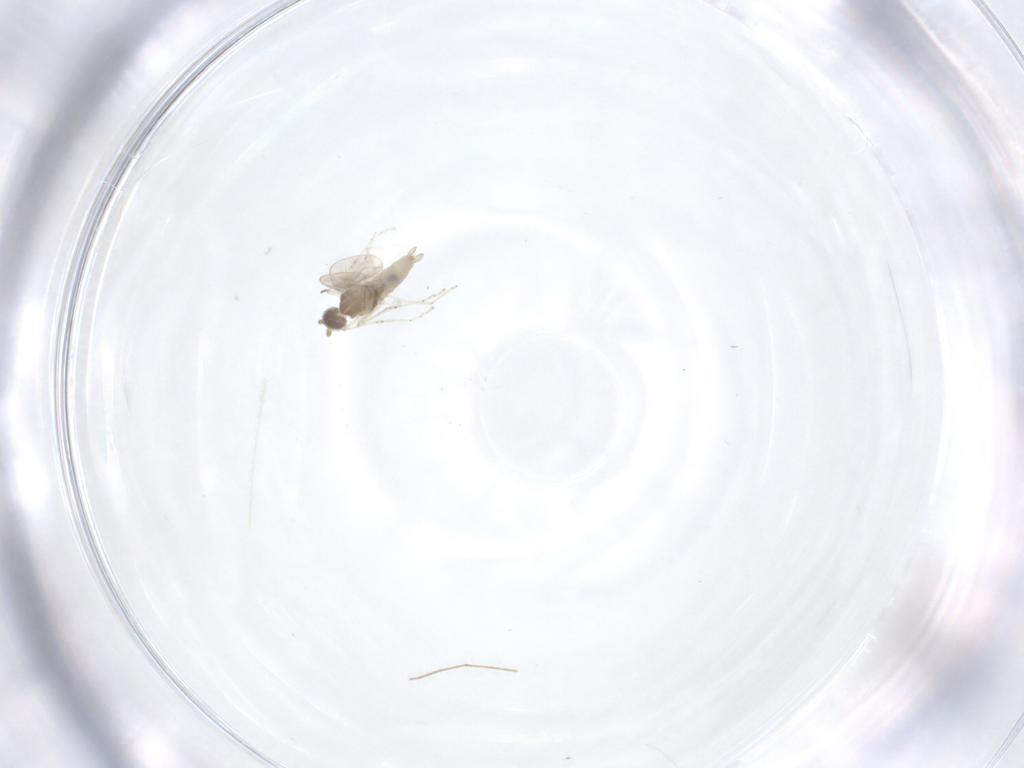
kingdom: Animalia
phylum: Arthropoda
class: Insecta
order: Diptera
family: Cecidomyiidae
